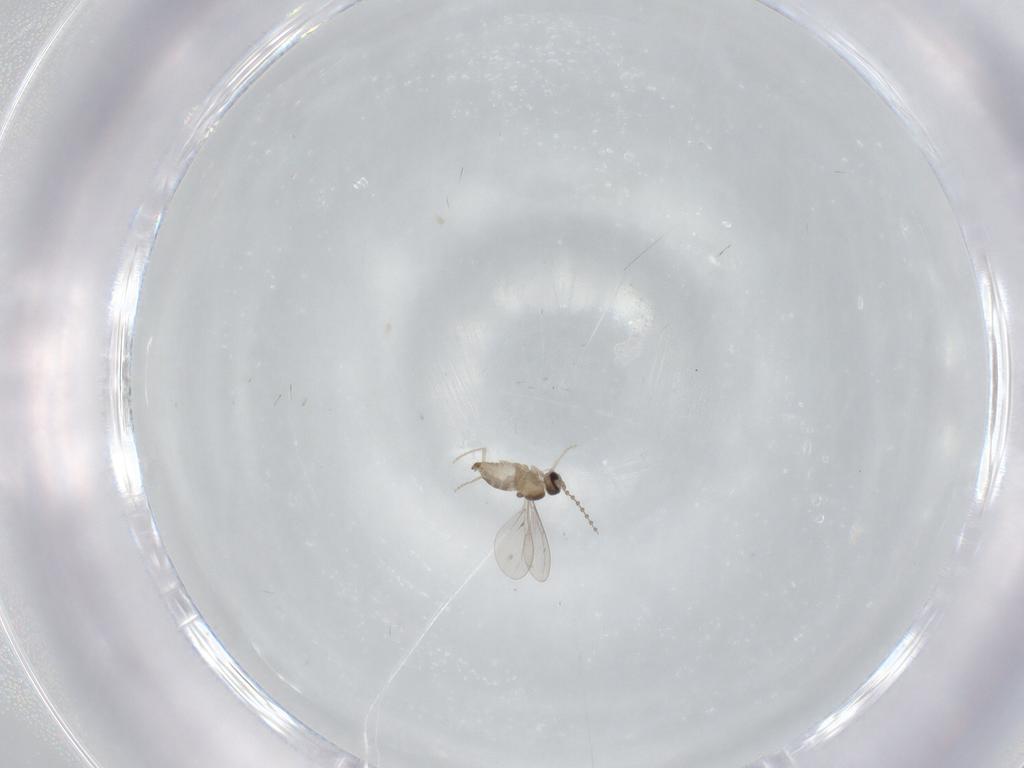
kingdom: Animalia
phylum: Arthropoda
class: Insecta
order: Diptera
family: Cecidomyiidae
